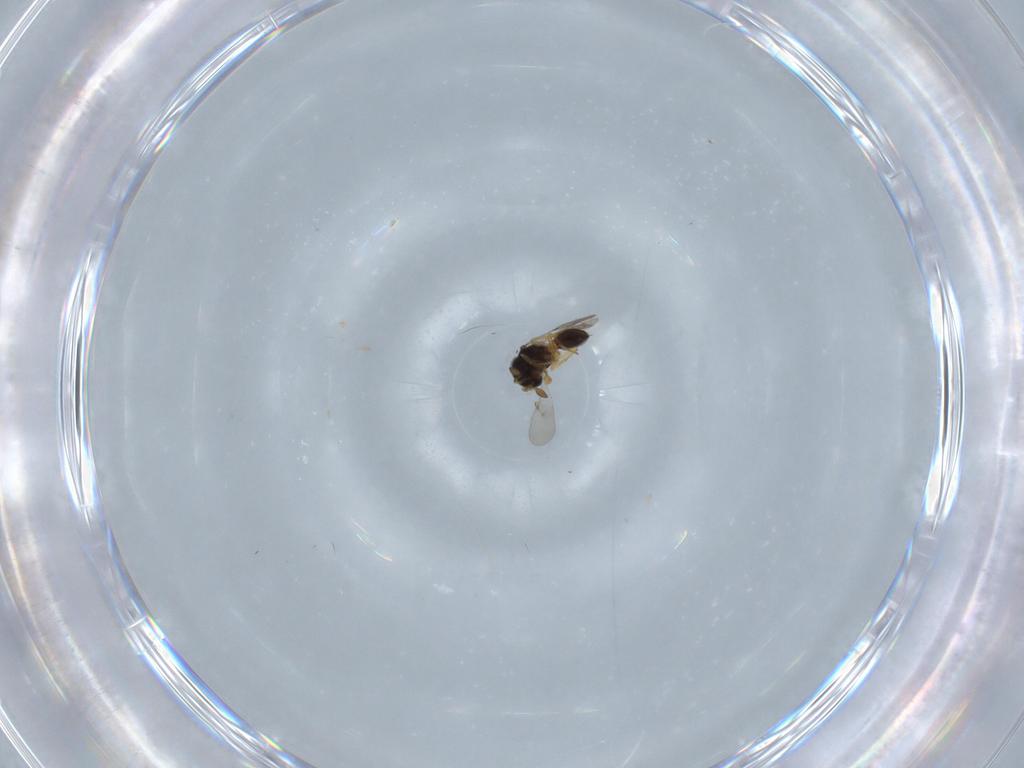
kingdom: Animalia
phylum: Arthropoda
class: Insecta
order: Hymenoptera
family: Scelionidae
